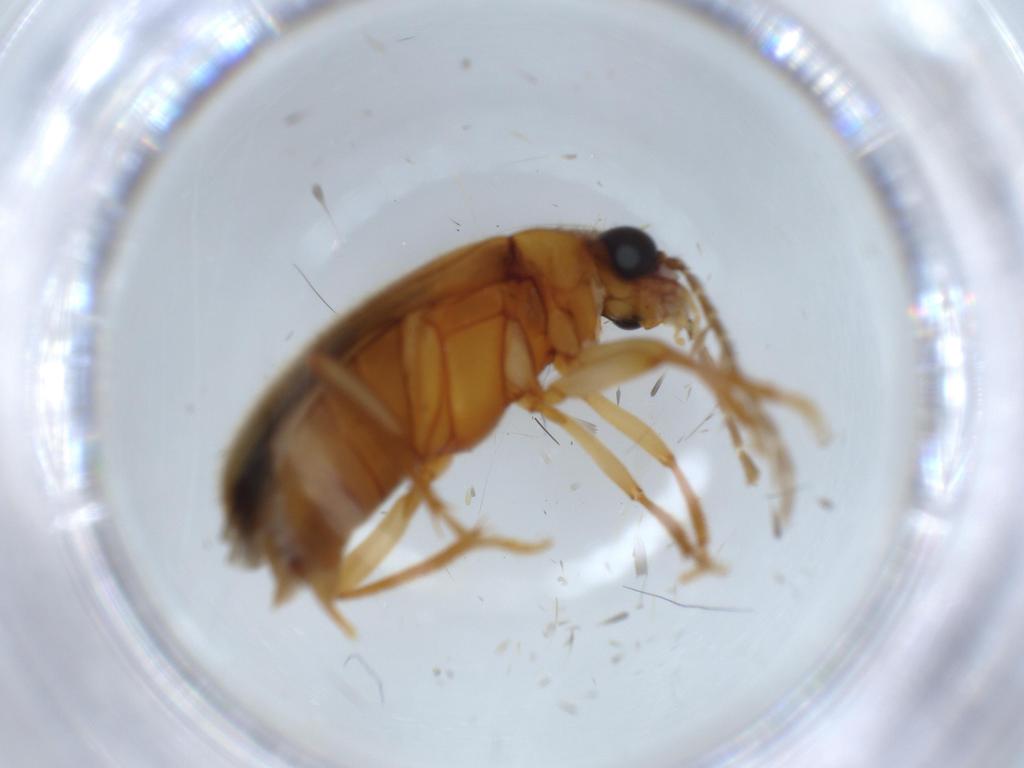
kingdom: Animalia
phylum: Arthropoda
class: Insecta
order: Coleoptera
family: Ptilodactylidae
